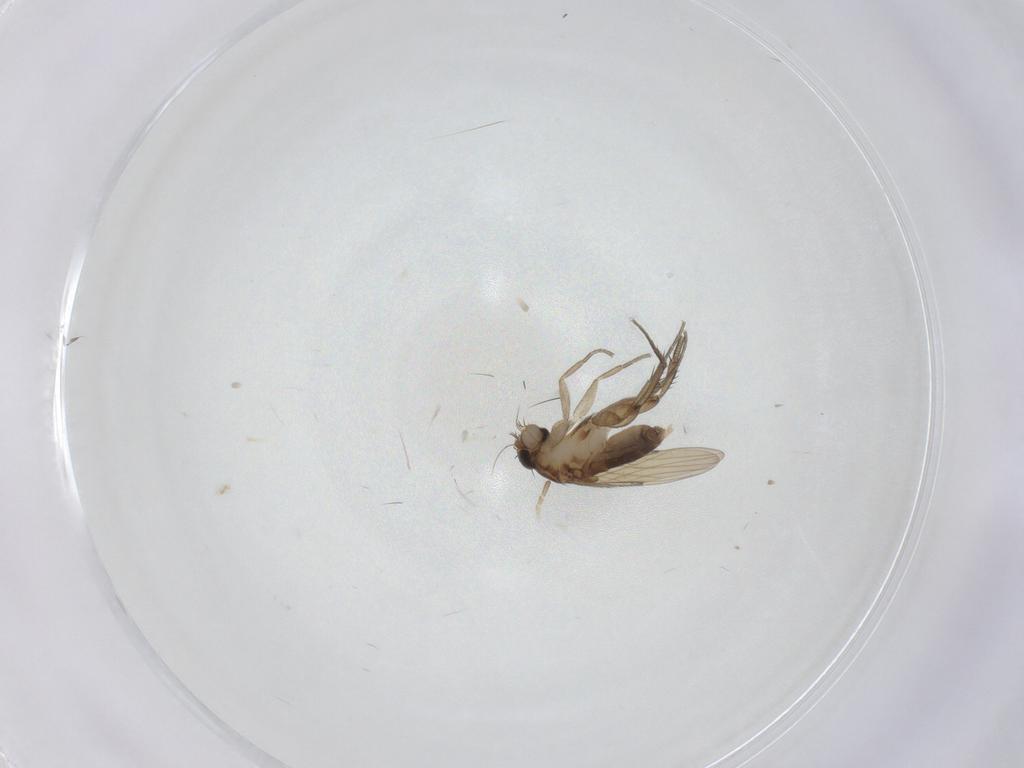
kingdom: Animalia
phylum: Arthropoda
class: Insecta
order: Diptera
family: Phoridae
